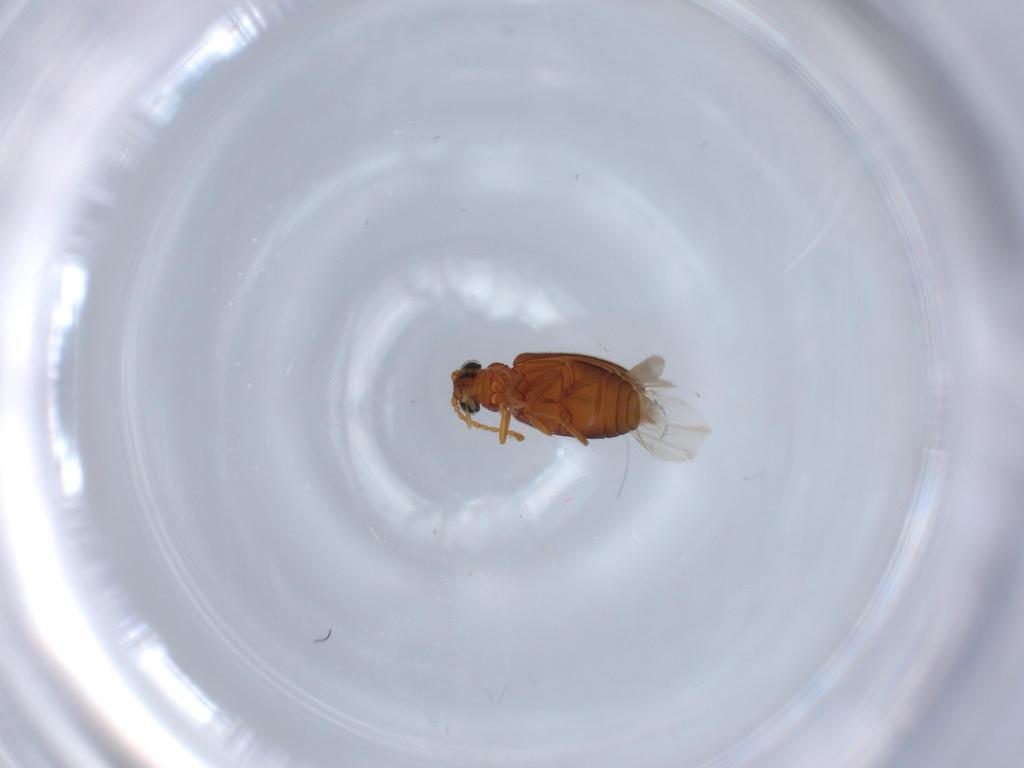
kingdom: Animalia
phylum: Arthropoda
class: Insecta
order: Coleoptera
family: Aderidae
